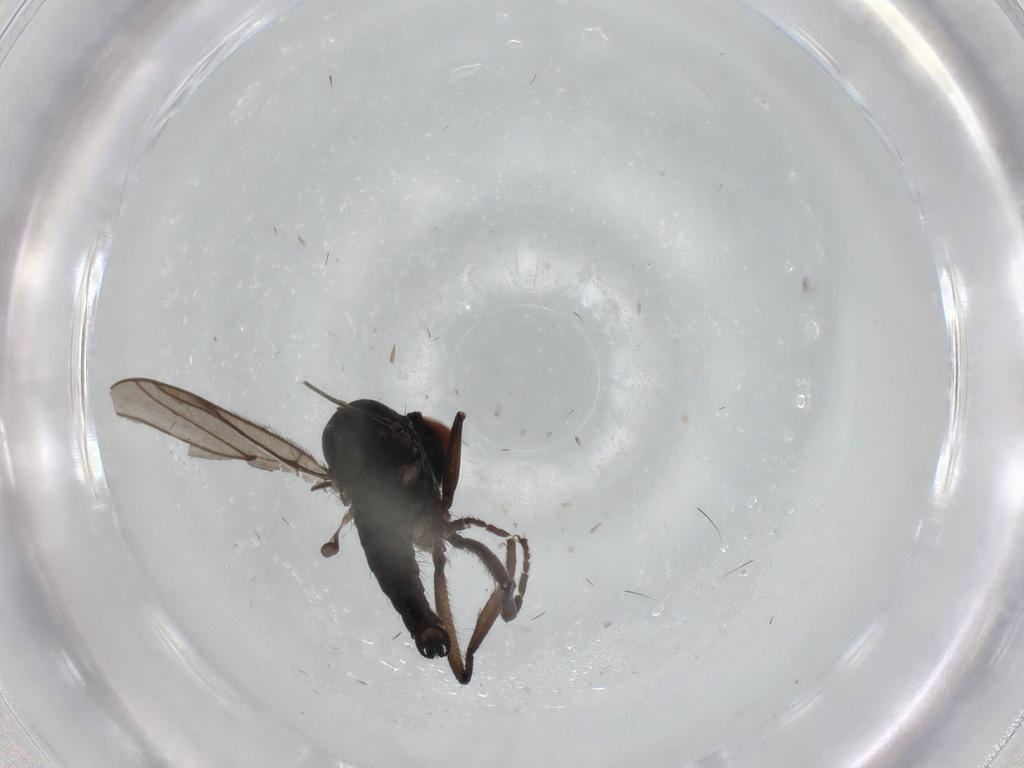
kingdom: Animalia
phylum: Arthropoda
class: Insecta
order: Diptera
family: Hybotidae
